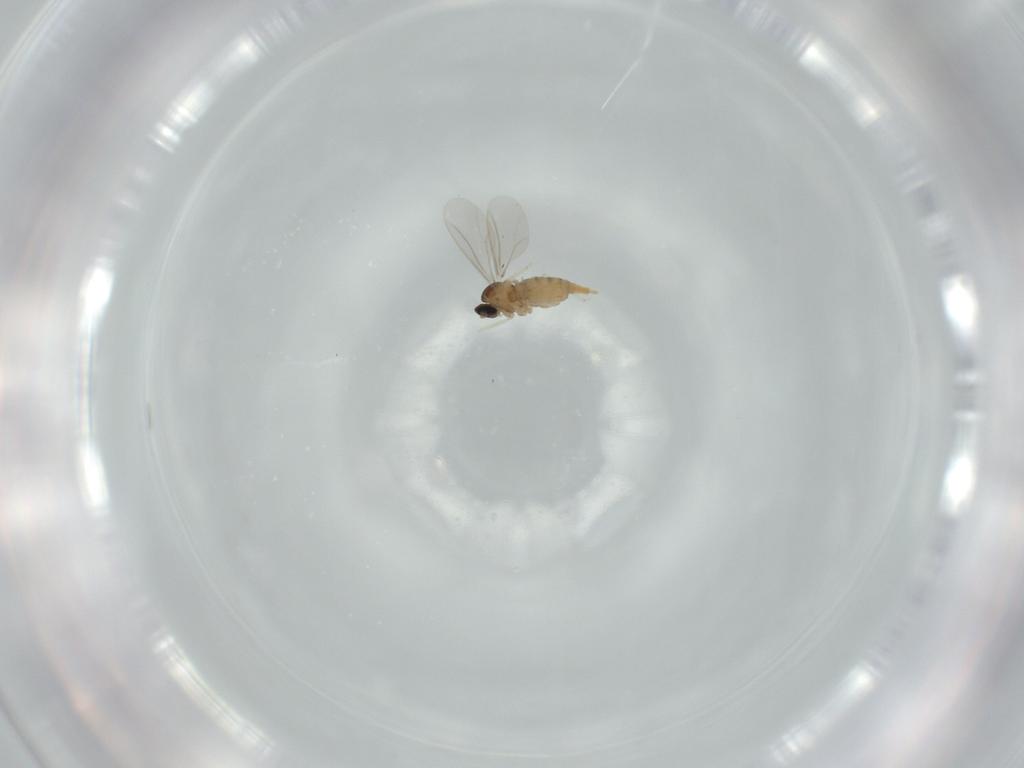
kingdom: Animalia
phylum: Arthropoda
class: Insecta
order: Diptera
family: Cecidomyiidae
